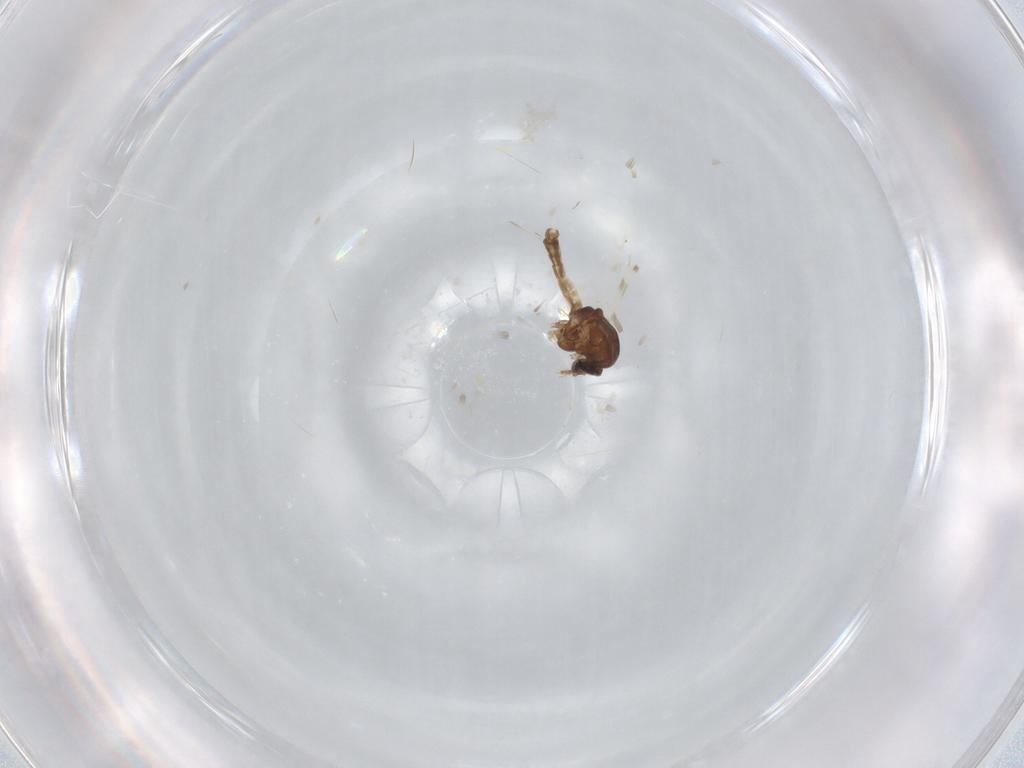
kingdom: Animalia
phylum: Arthropoda
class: Insecta
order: Diptera
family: Ceratopogonidae
